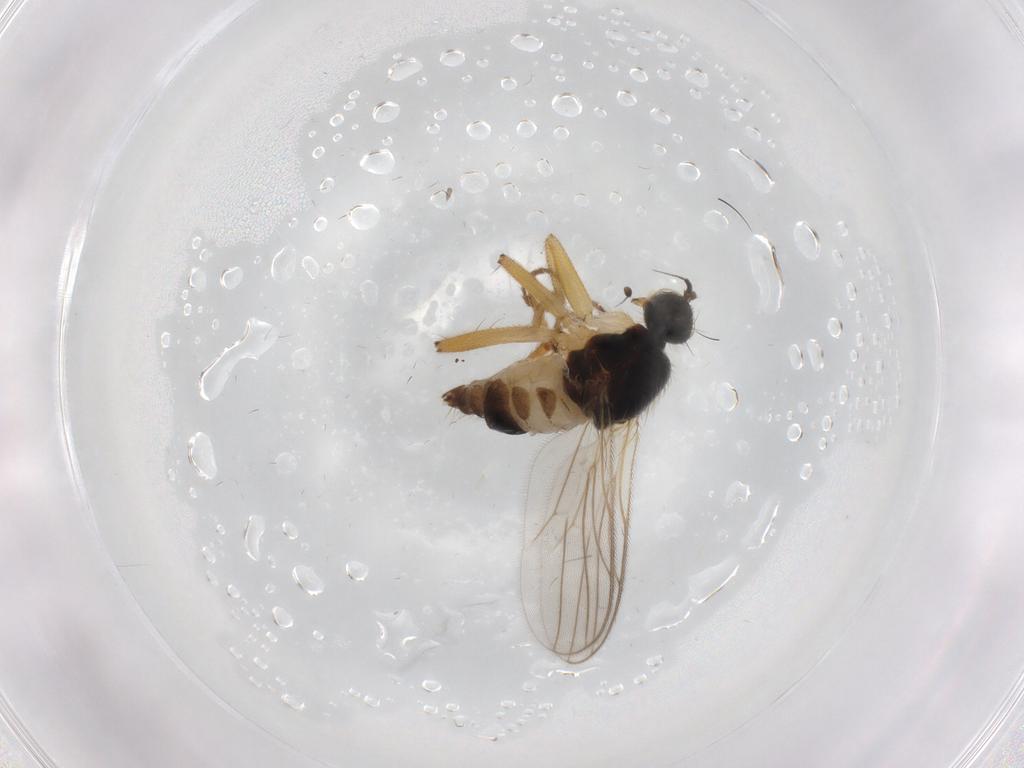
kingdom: Animalia
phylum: Arthropoda
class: Insecta
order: Diptera
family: Hybotidae
